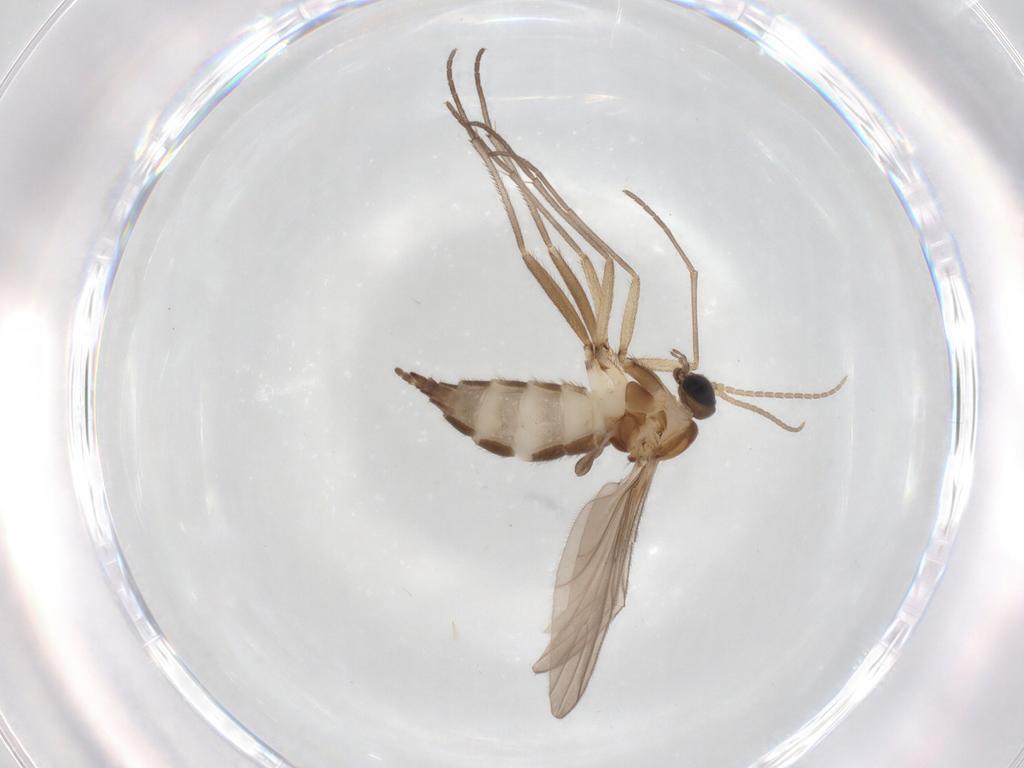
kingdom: Animalia
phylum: Arthropoda
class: Insecta
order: Diptera
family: Sciaridae
